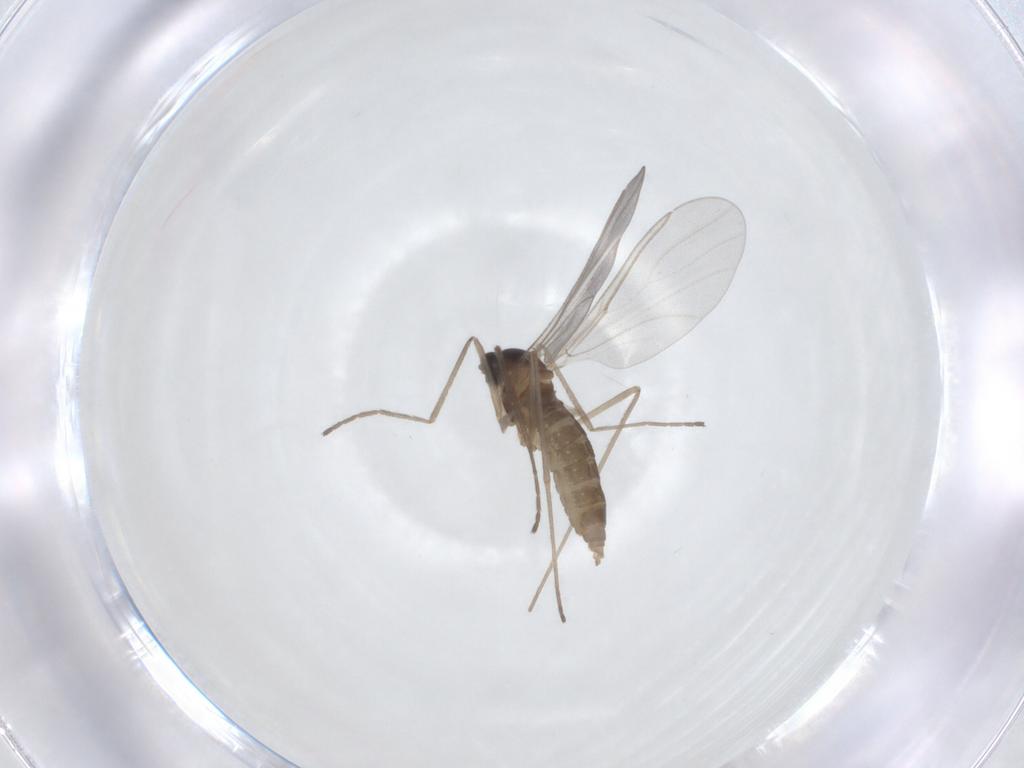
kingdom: Animalia
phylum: Arthropoda
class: Insecta
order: Diptera
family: Cecidomyiidae
